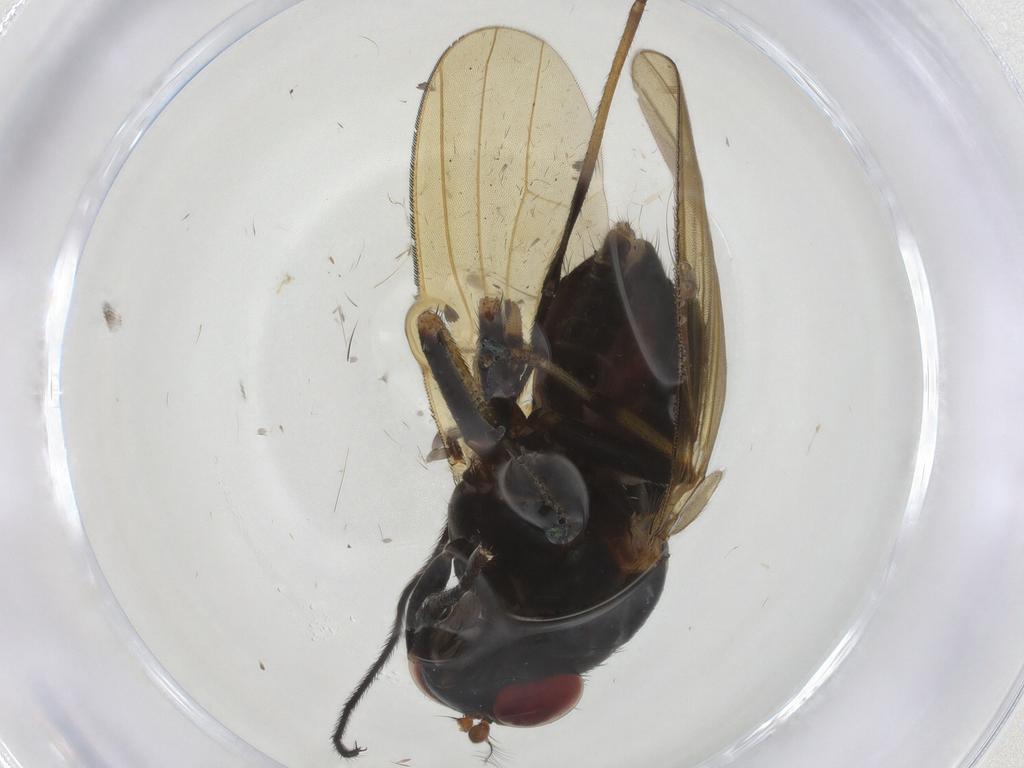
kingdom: Animalia
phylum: Arthropoda
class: Insecta
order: Diptera
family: Limoniidae
